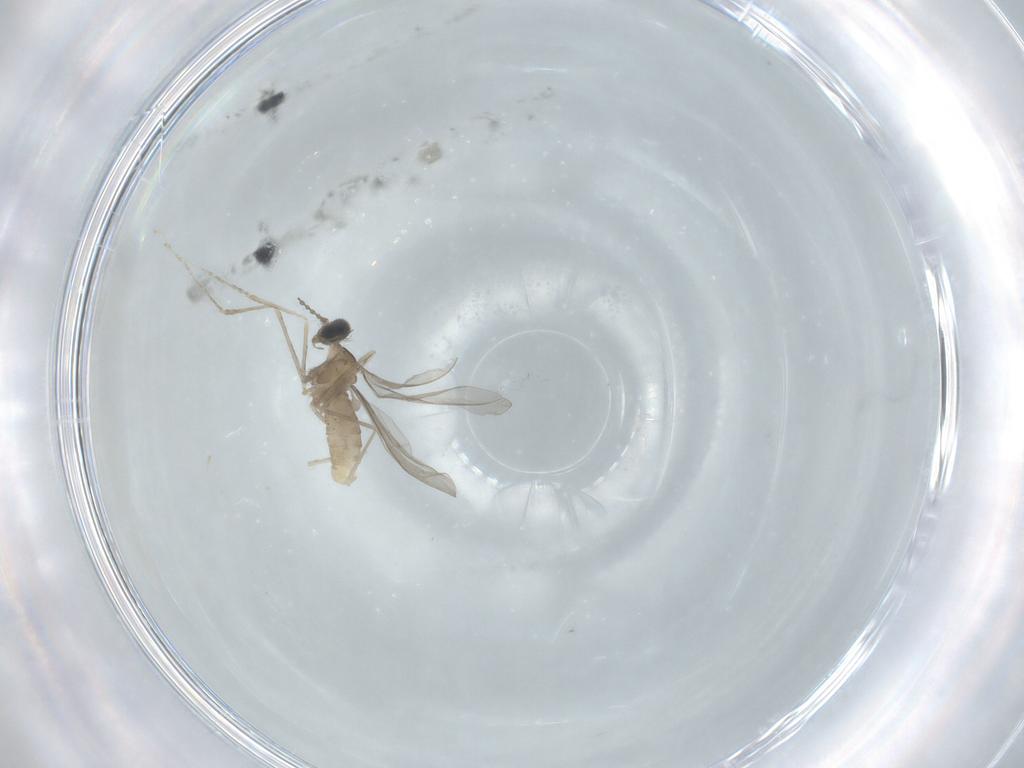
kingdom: Animalia
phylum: Arthropoda
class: Insecta
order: Diptera
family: Cecidomyiidae
